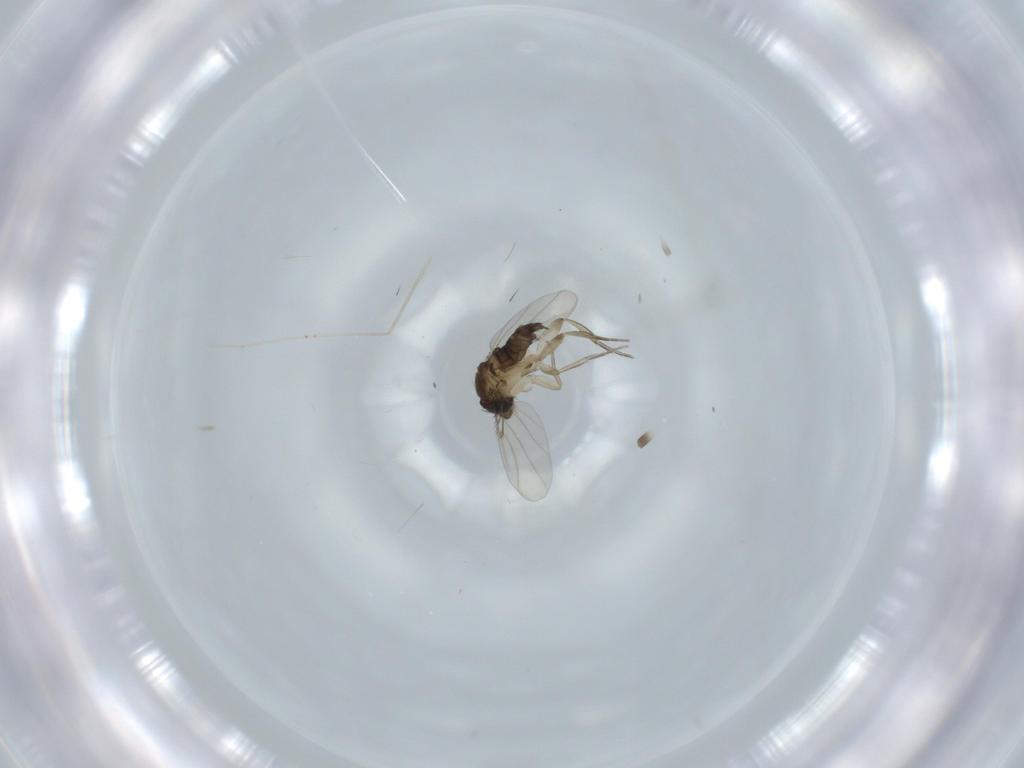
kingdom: Animalia
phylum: Arthropoda
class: Insecta
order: Diptera
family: Phoridae
